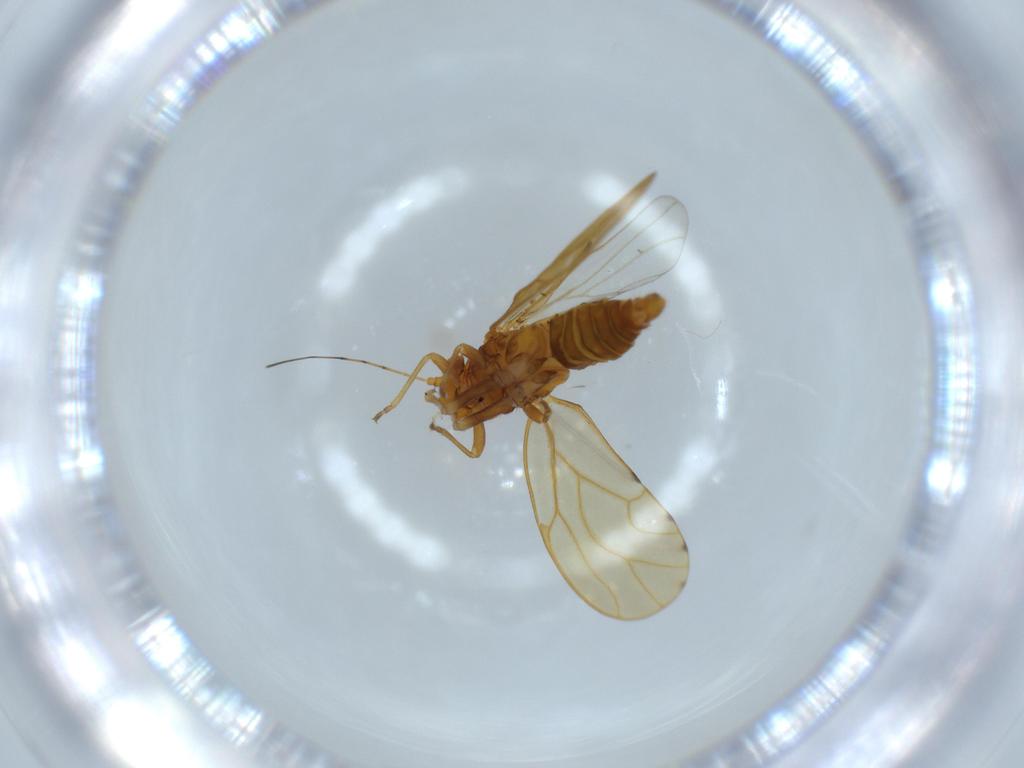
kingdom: Animalia
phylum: Arthropoda
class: Insecta
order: Hemiptera
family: Psylloidea_incertae_sedis
